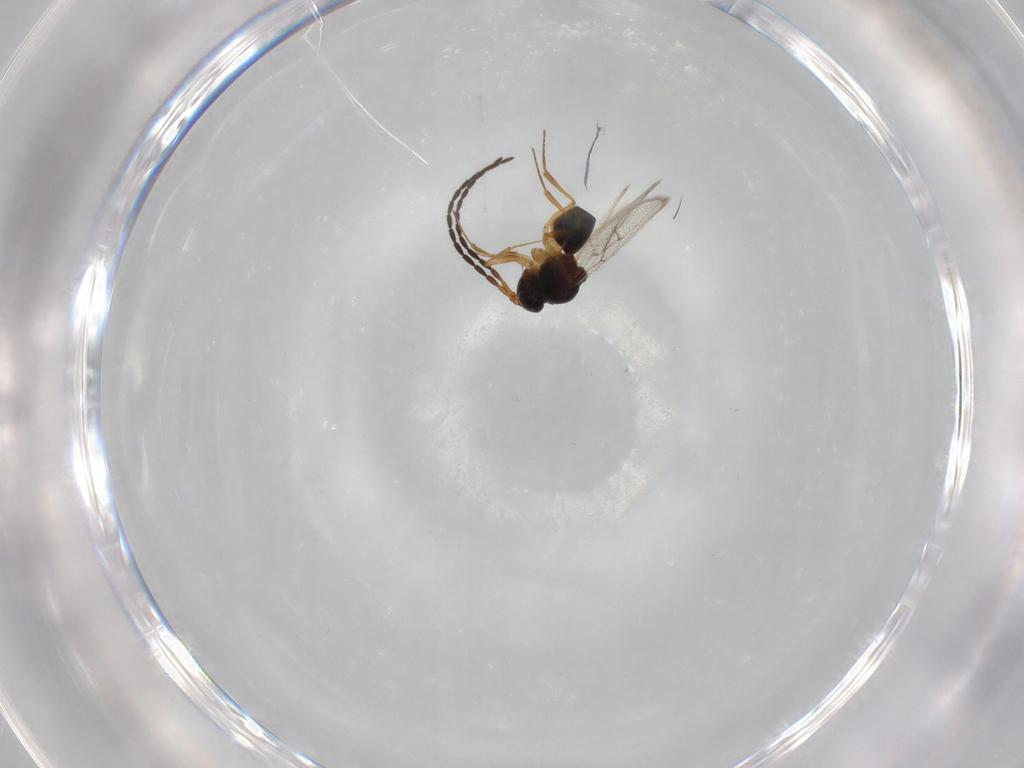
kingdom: Animalia
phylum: Arthropoda
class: Insecta
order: Hymenoptera
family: Figitidae
